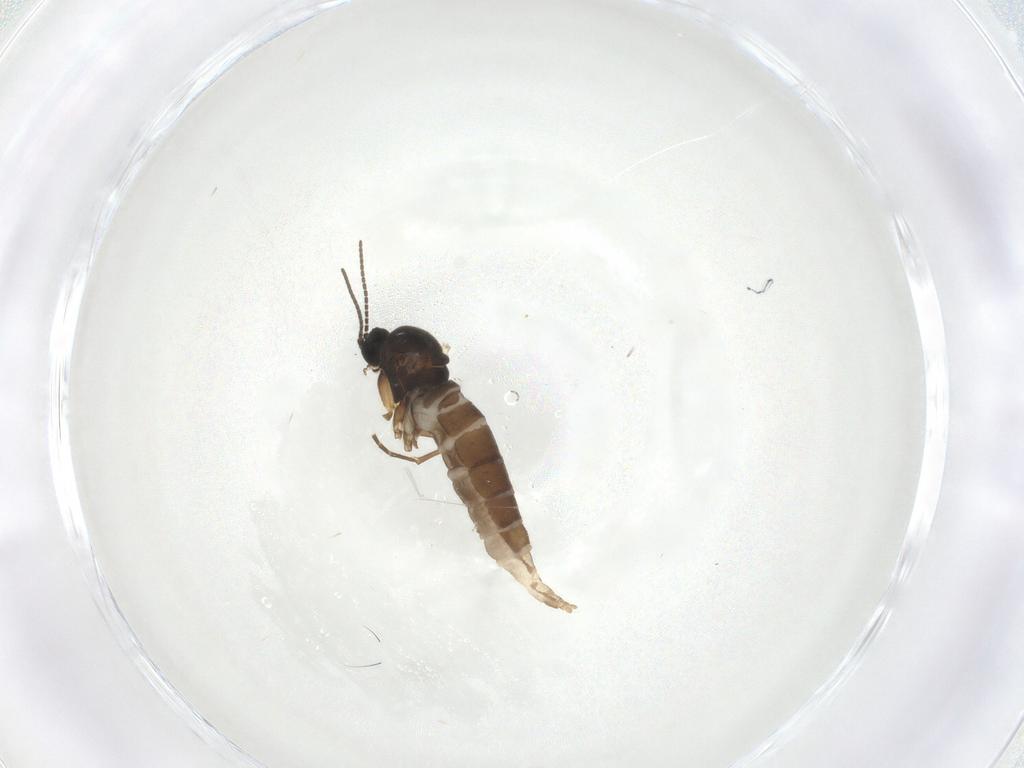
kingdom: Animalia
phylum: Arthropoda
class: Insecta
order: Diptera
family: Sciaridae
